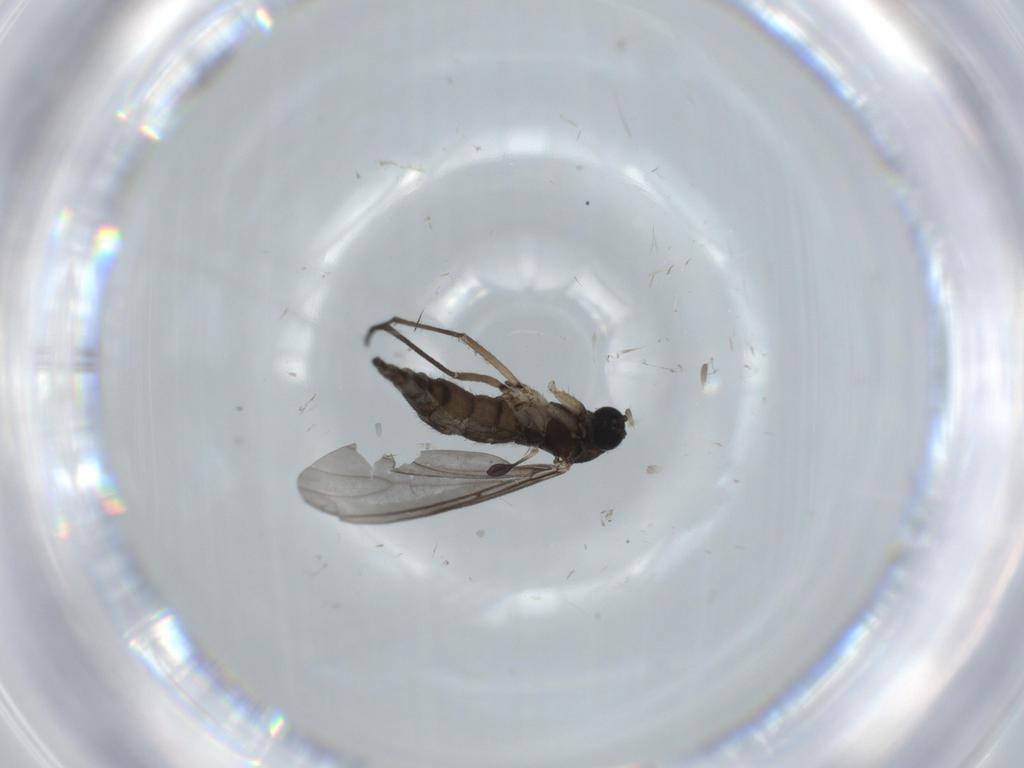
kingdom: Animalia
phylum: Arthropoda
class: Insecta
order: Diptera
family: Sciaridae
